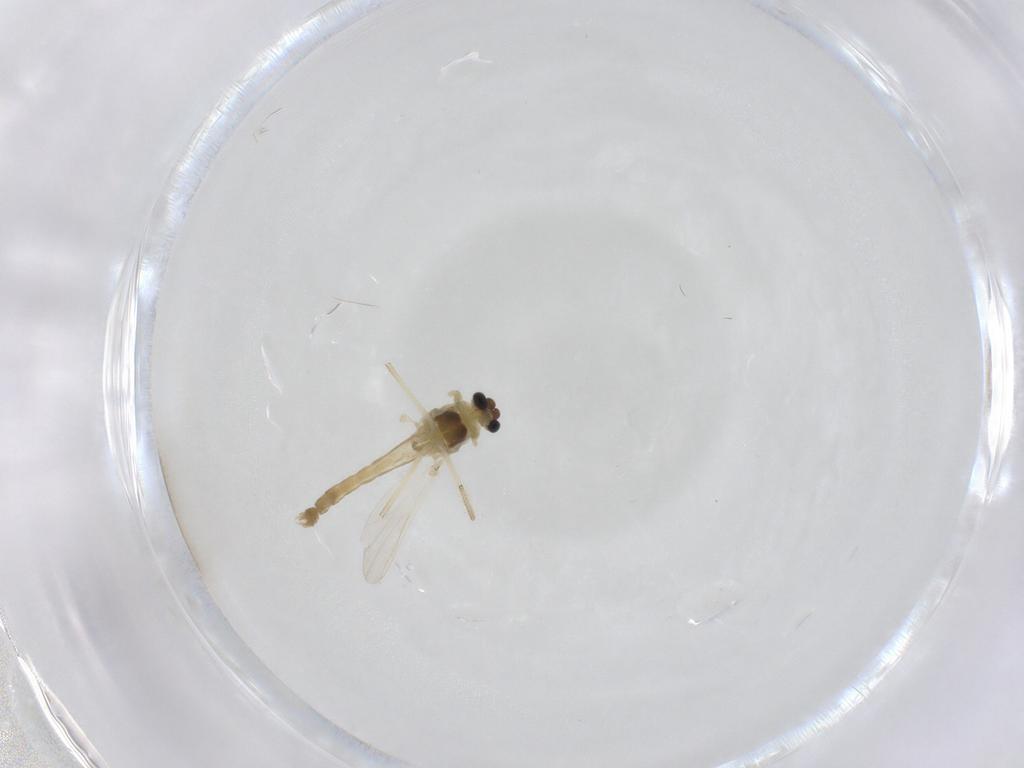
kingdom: Animalia
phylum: Arthropoda
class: Insecta
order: Diptera
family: Chironomidae
